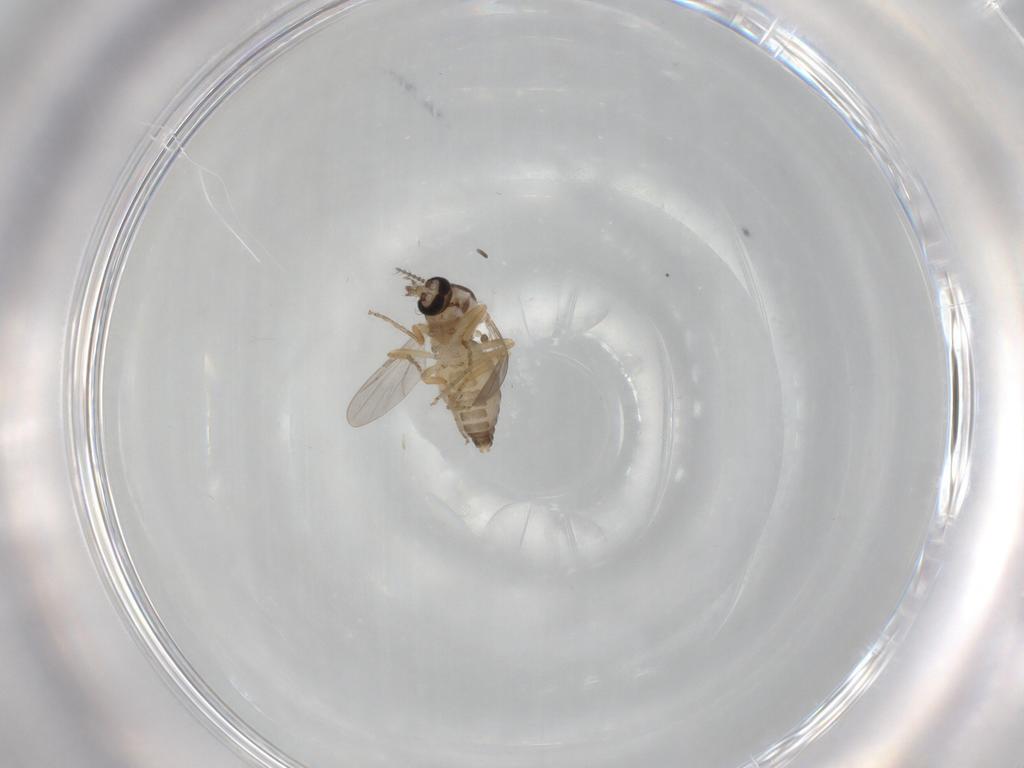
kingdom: Animalia
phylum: Arthropoda
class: Insecta
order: Diptera
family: Ceratopogonidae
